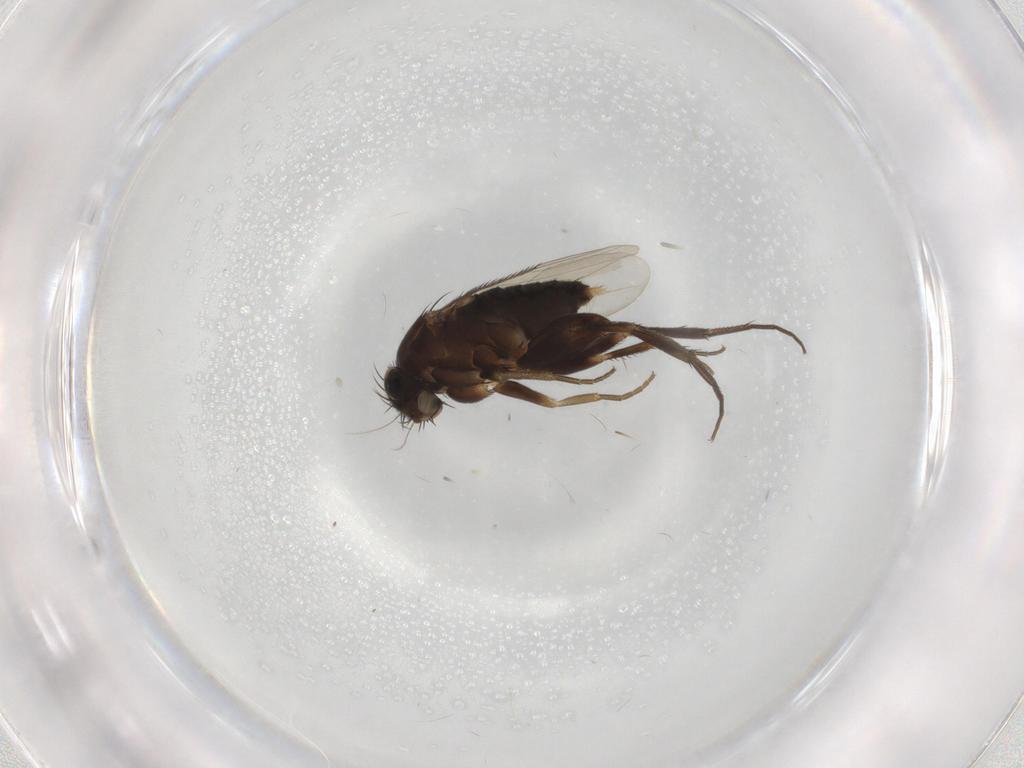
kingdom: Animalia
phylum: Arthropoda
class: Insecta
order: Diptera
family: Phoridae
